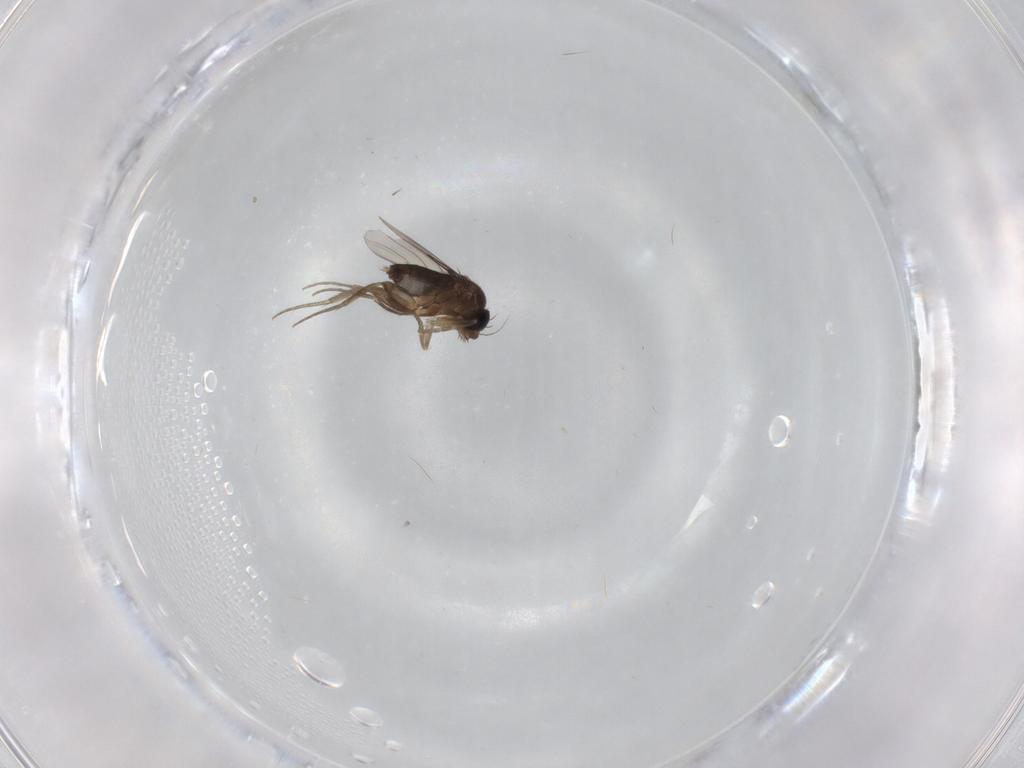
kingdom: Animalia
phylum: Arthropoda
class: Insecta
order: Diptera
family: Phoridae
